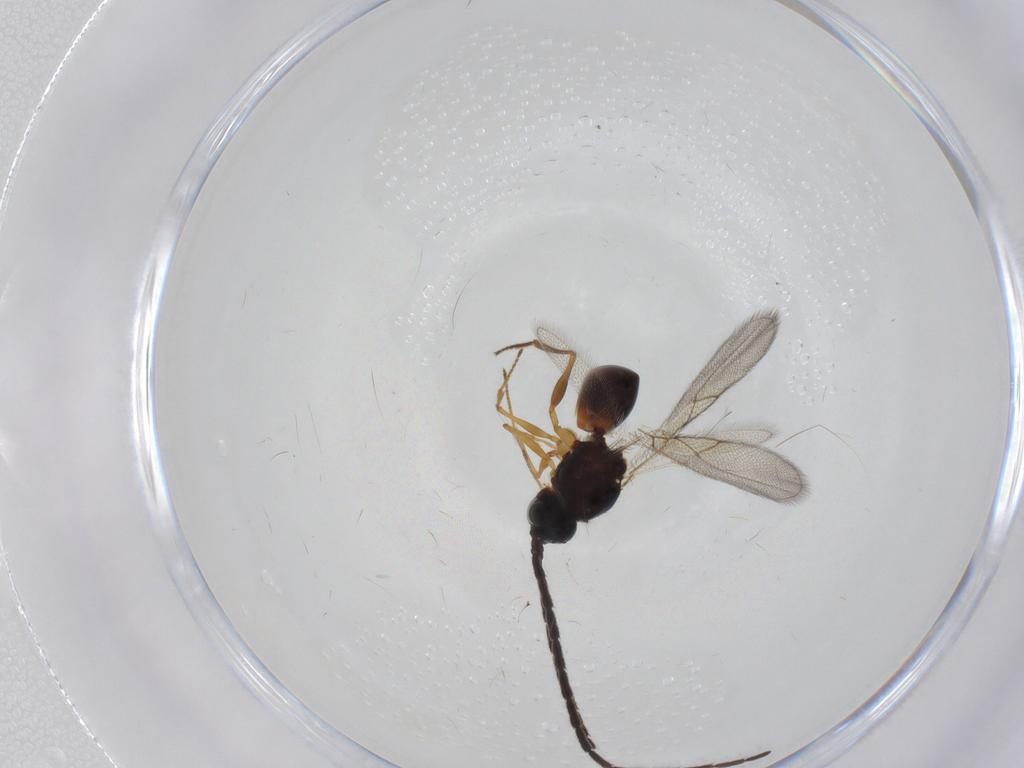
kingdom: Animalia
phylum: Arthropoda
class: Insecta
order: Hymenoptera
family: Figitidae
